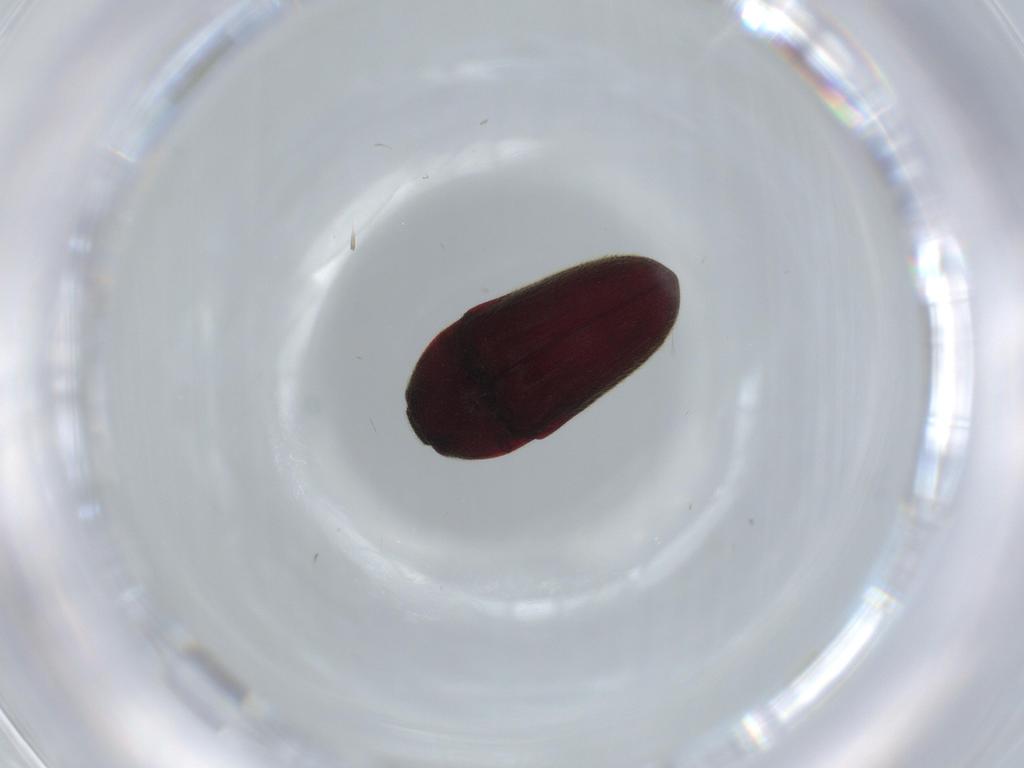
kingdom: Animalia
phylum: Arthropoda
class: Insecta
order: Coleoptera
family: Throscidae
